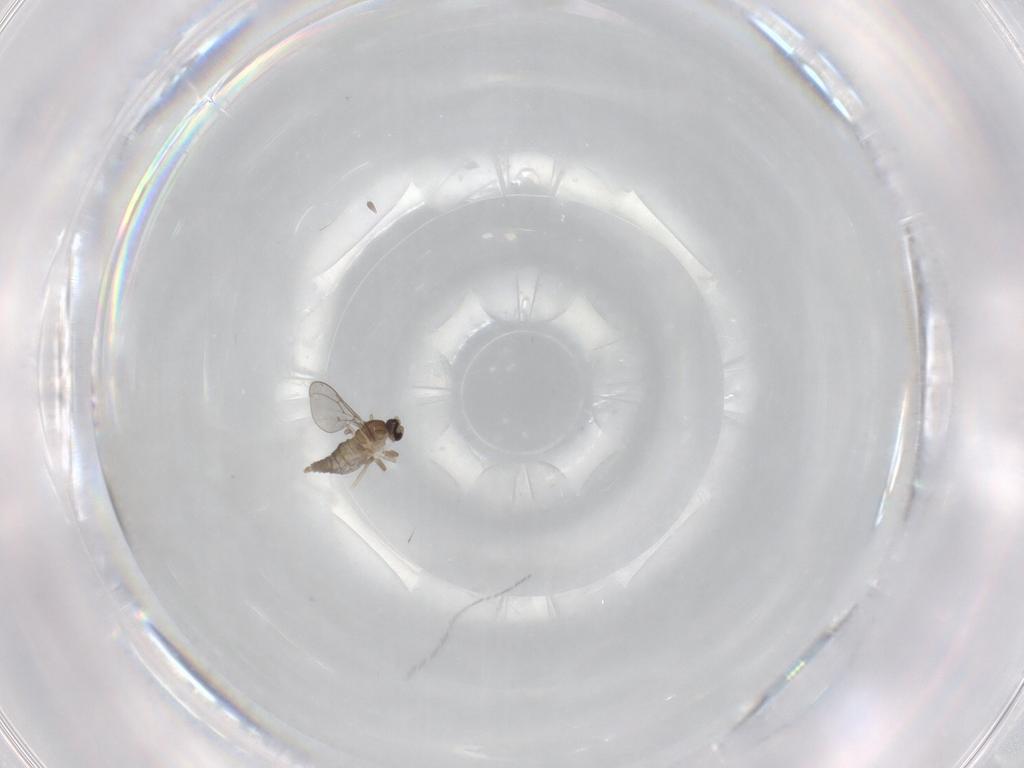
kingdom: Animalia
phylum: Arthropoda
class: Insecta
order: Diptera
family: Cecidomyiidae
